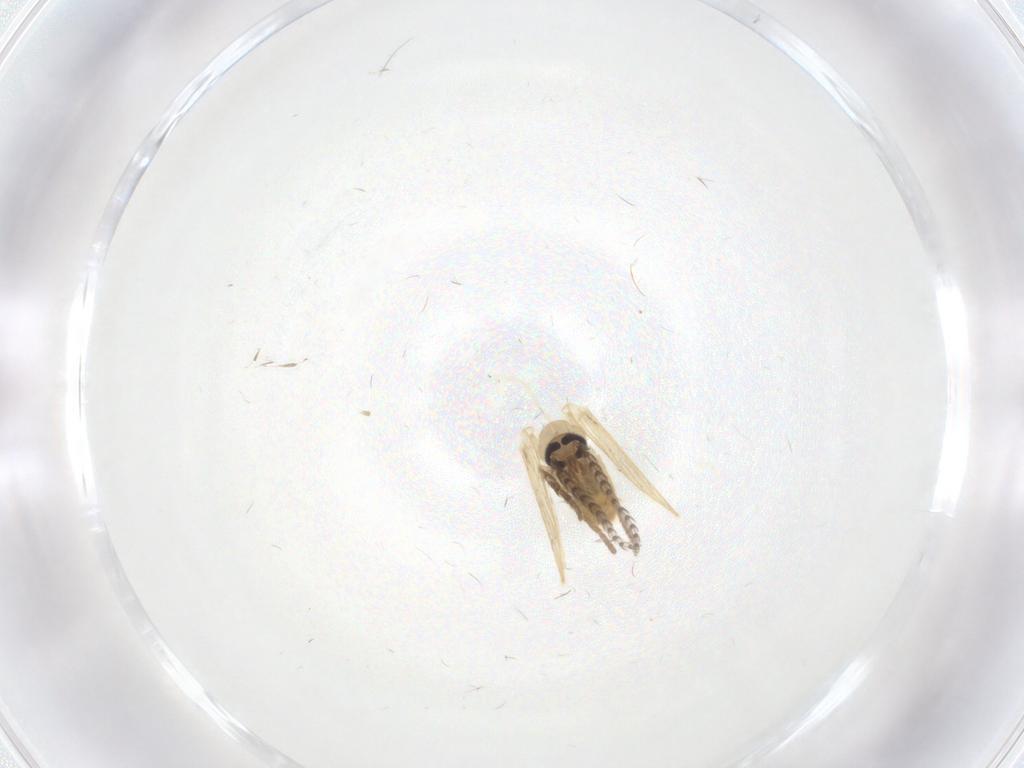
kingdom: Animalia
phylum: Arthropoda
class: Insecta
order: Diptera
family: Psychodidae
